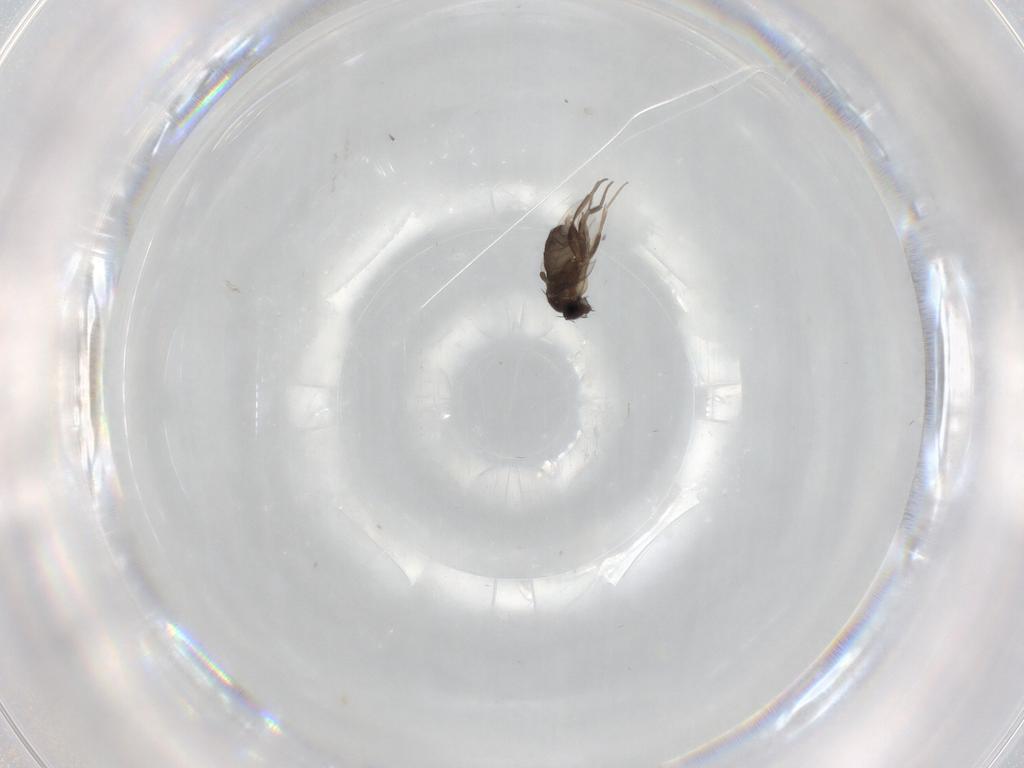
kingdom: Animalia
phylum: Arthropoda
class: Insecta
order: Diptera
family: Phoridae
